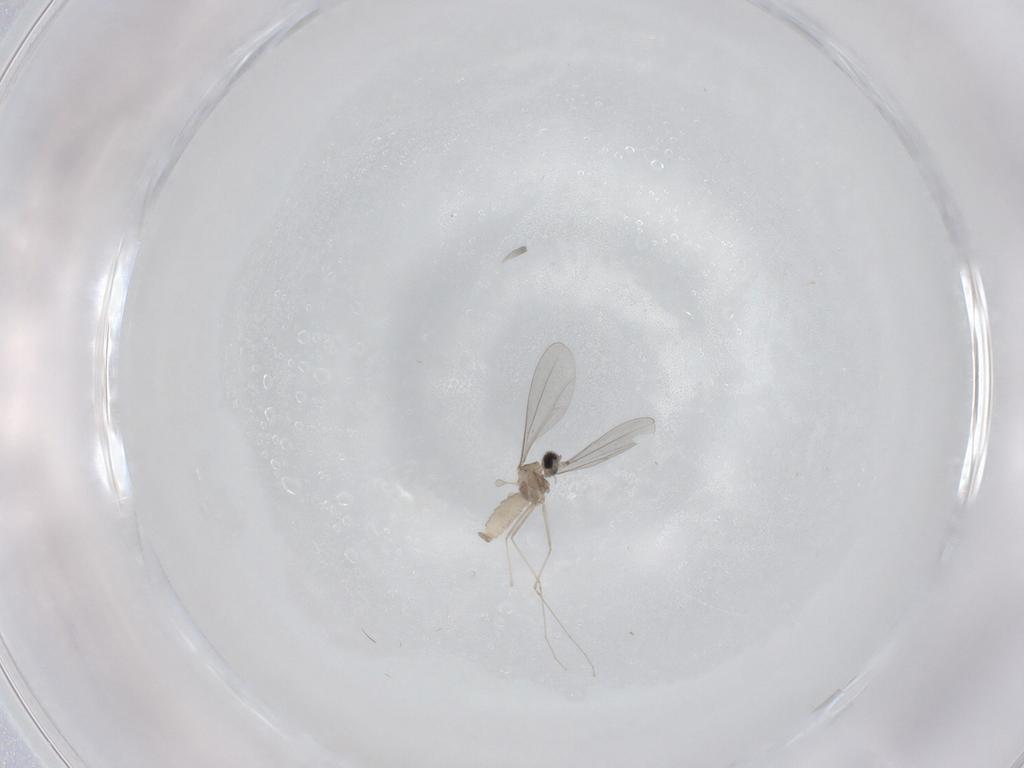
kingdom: Animalia
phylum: Arthropoda
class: Insecta
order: Diptera
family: Cecidomyiidae
